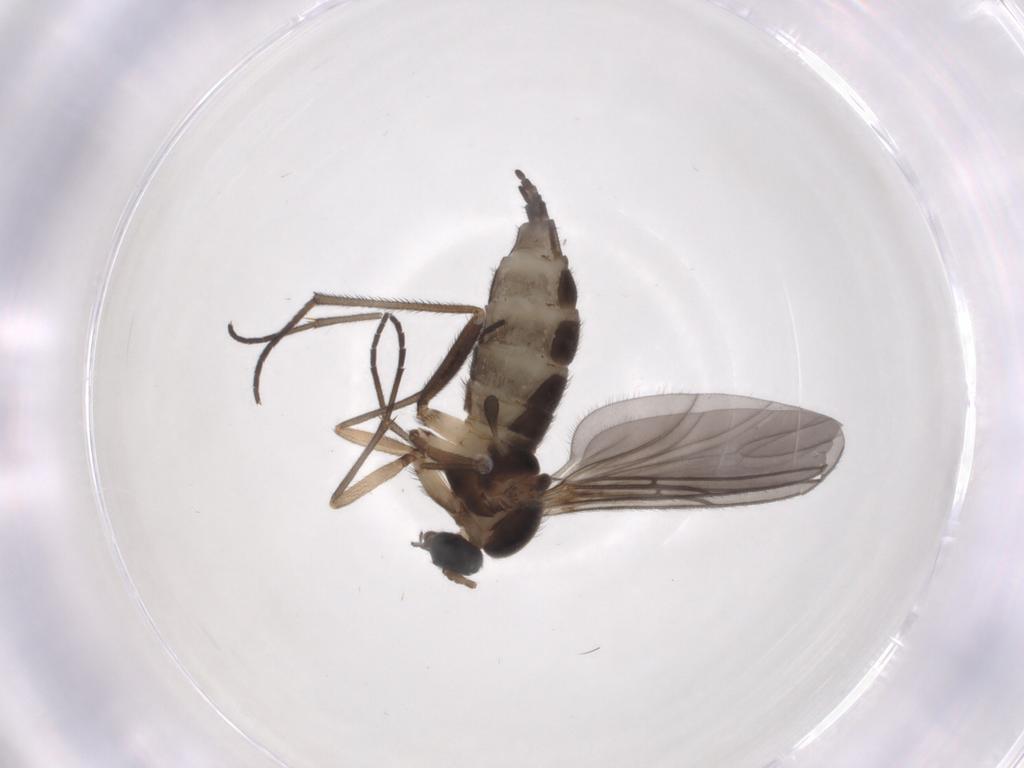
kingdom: Animalia
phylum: Arthropoda
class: Insecta
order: Diptera
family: Sciaridae
